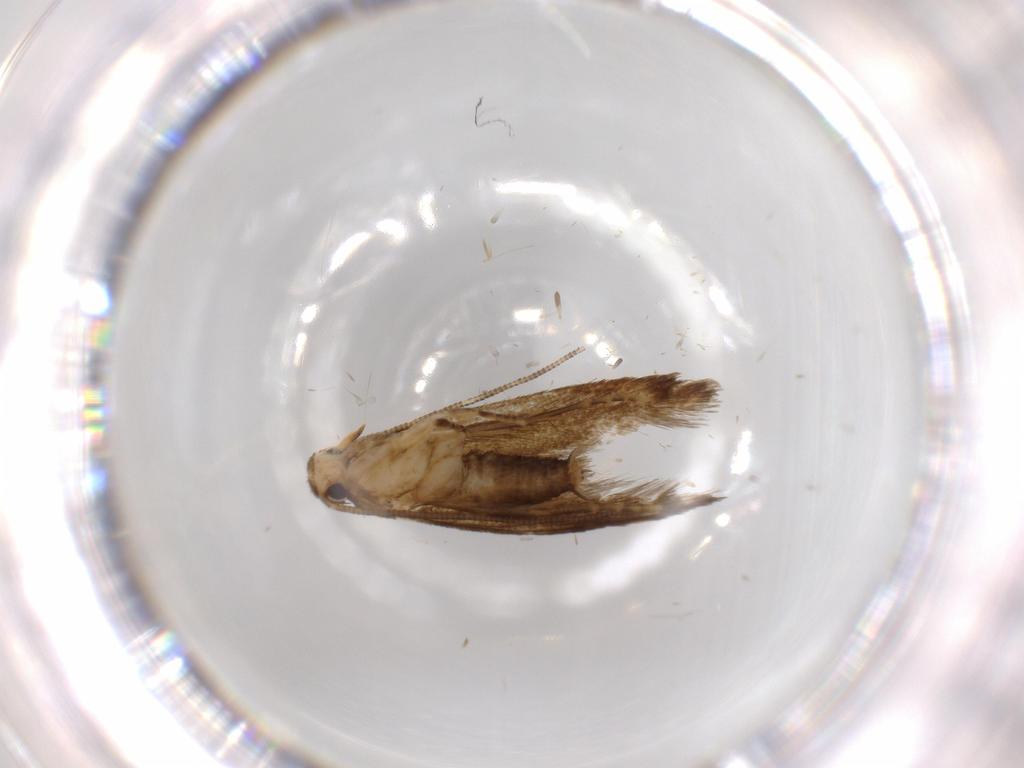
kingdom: Animalia
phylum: Arthropoda
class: Insecta
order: Lepidoptera
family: Tineidae
